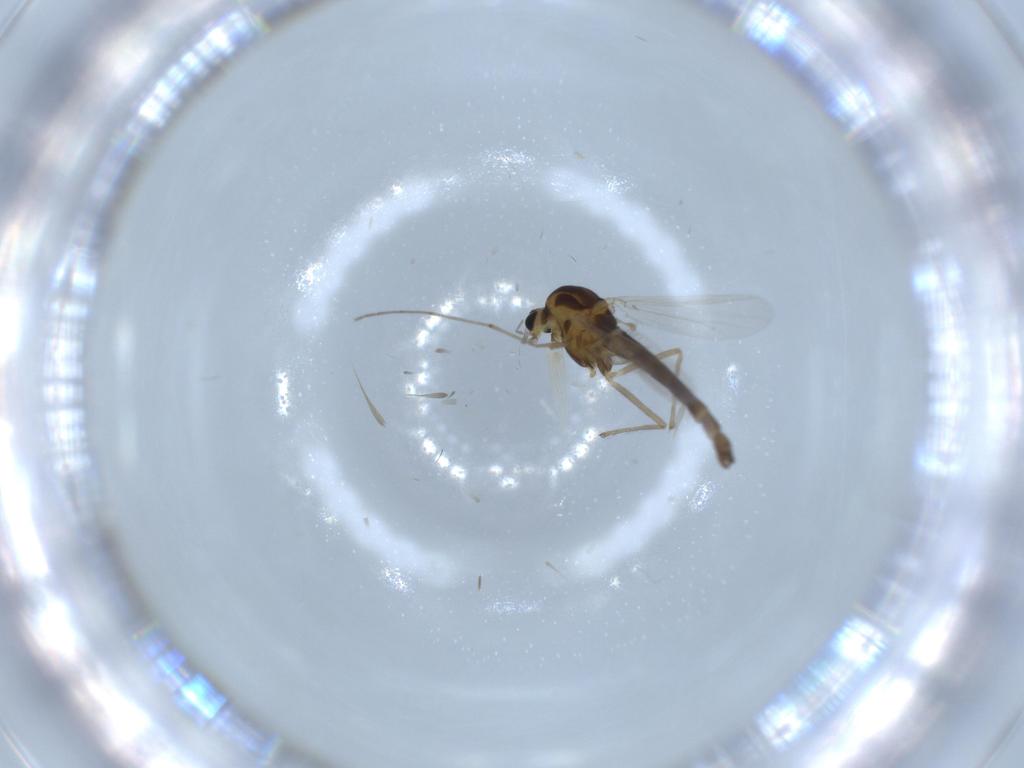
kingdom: Animalia
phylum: Arthropoda
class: Insecta
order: Diptera
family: Chironomidae
